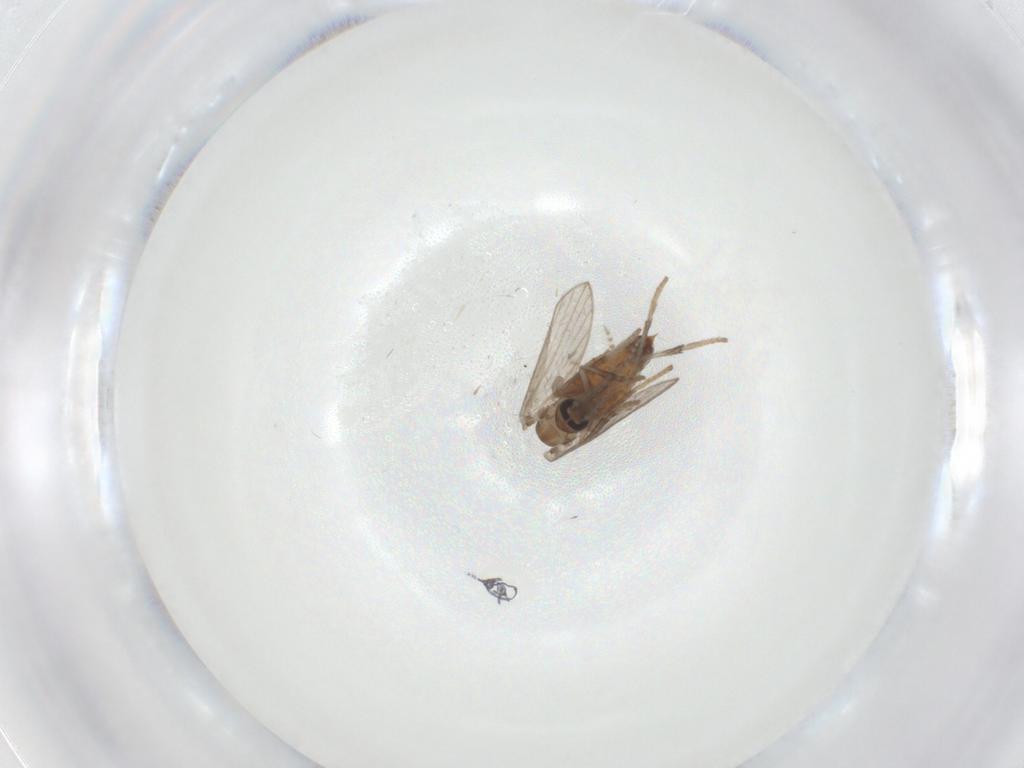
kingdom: Animalia
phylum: Arthropoda
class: Insecta
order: Diptera
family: Psychodidae
